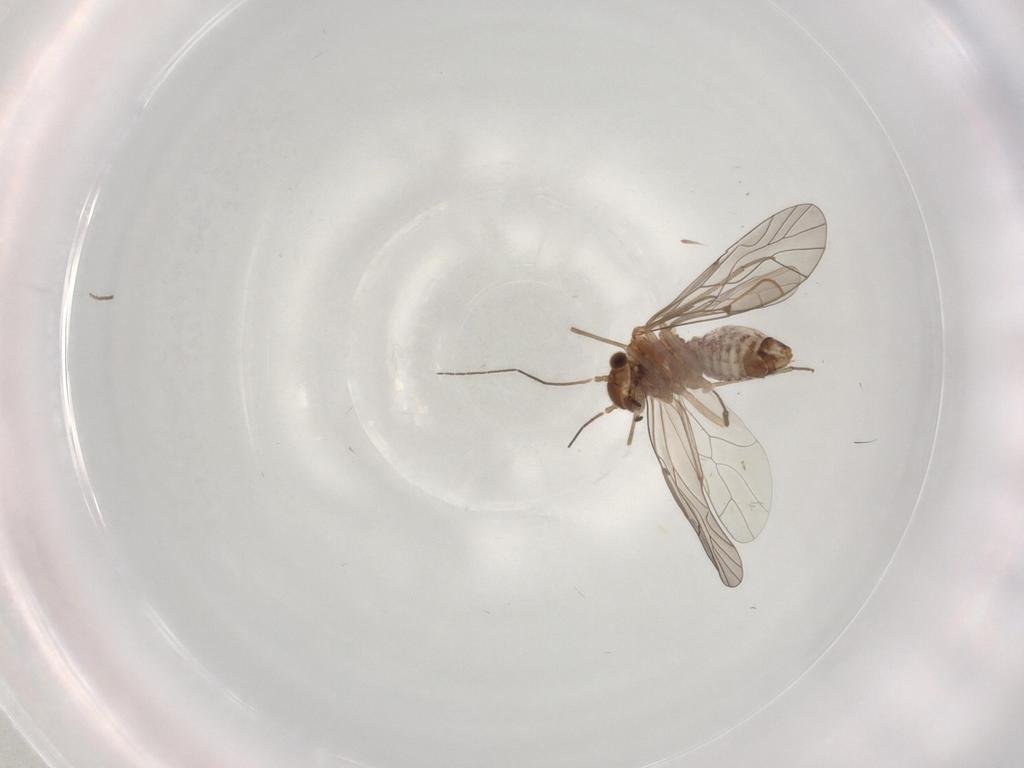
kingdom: Animalia
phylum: Arthropoda
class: Insecta
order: Psocodea
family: Lachesillidae
